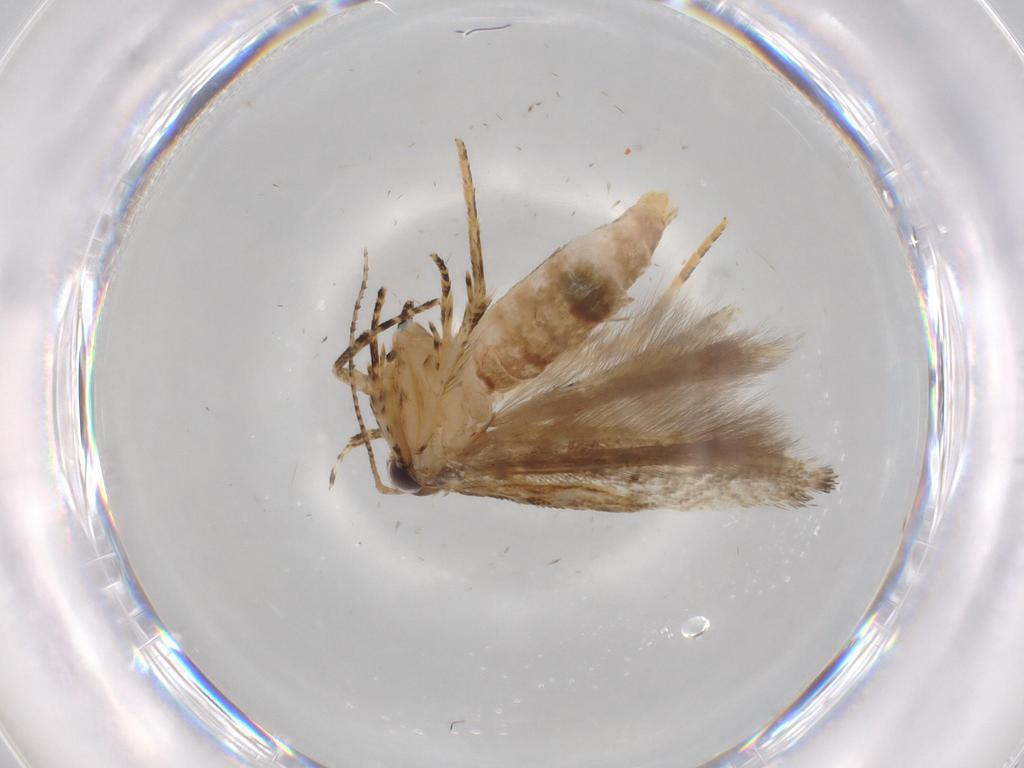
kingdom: Animalia
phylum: Arthropoda
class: Insecta
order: Lepidoptera
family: Gelechiidae
